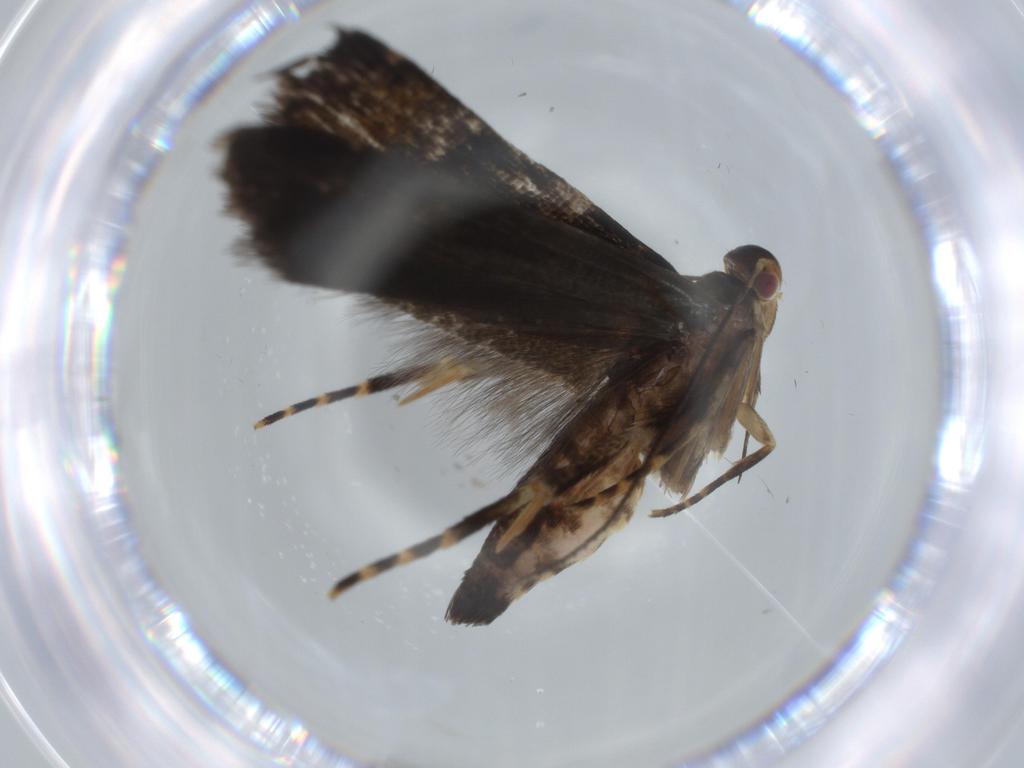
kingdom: Animalia
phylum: Arthropoda
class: Insecta
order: Lepidoptera
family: Gelechiidae
